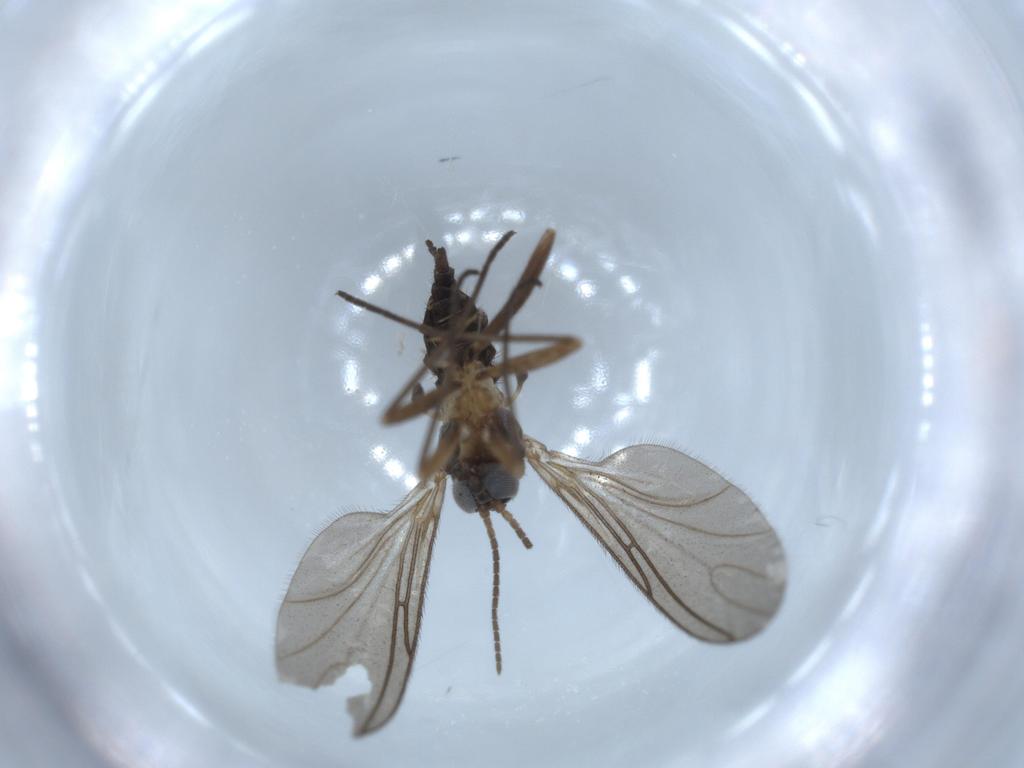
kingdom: Animalia
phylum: Arthropoda
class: Insecta
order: Diptera
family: Sciaridae
